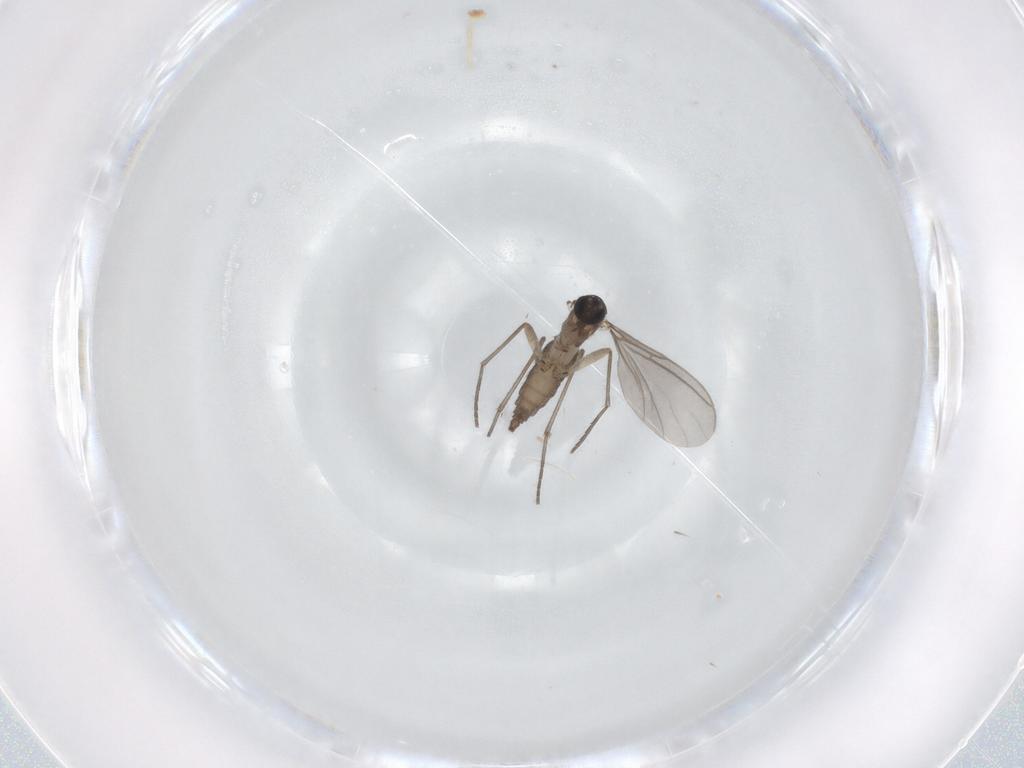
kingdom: Animalia
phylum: Arthropoda
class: Insecta
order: Diptera
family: Sciaridae
